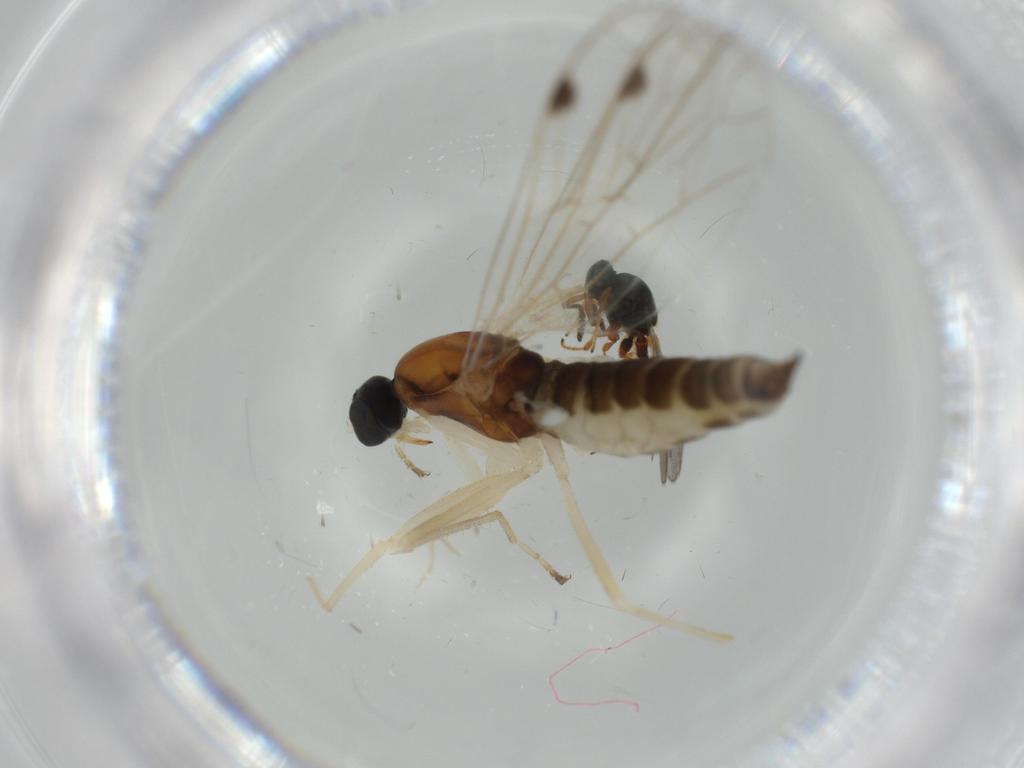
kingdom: Animalia
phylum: Arthropoda
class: Insecta
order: Diptera
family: Empididae
